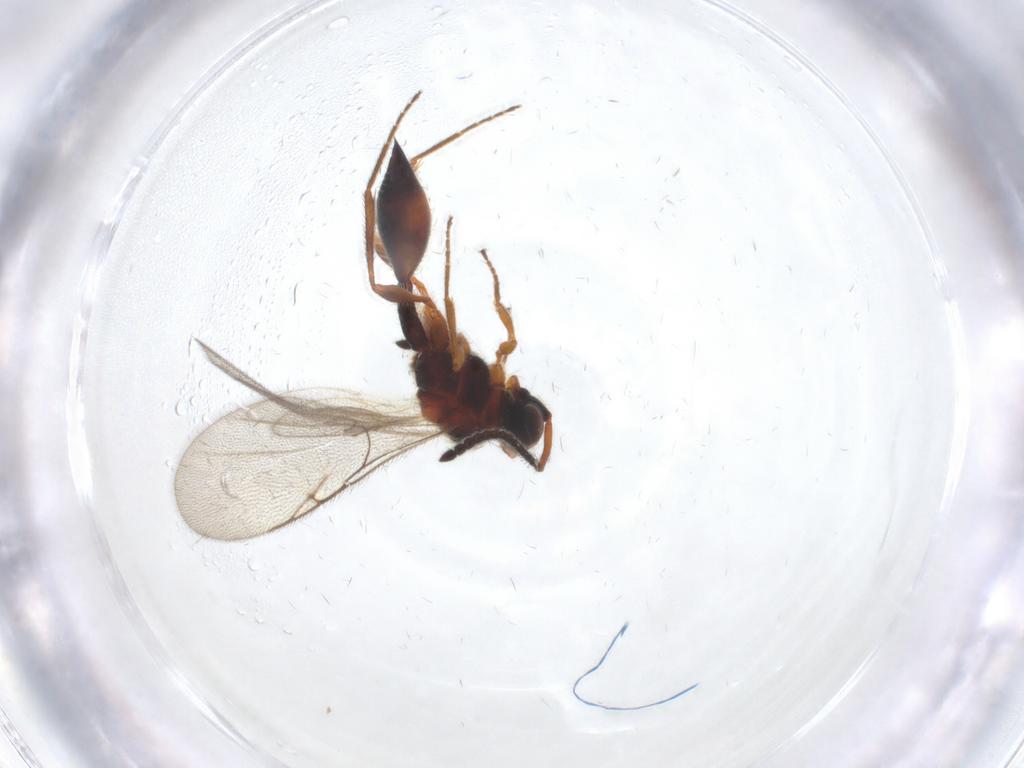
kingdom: Animalia
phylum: Arthropoda
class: Insecta
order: Hymenoptera
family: Diapriidae
